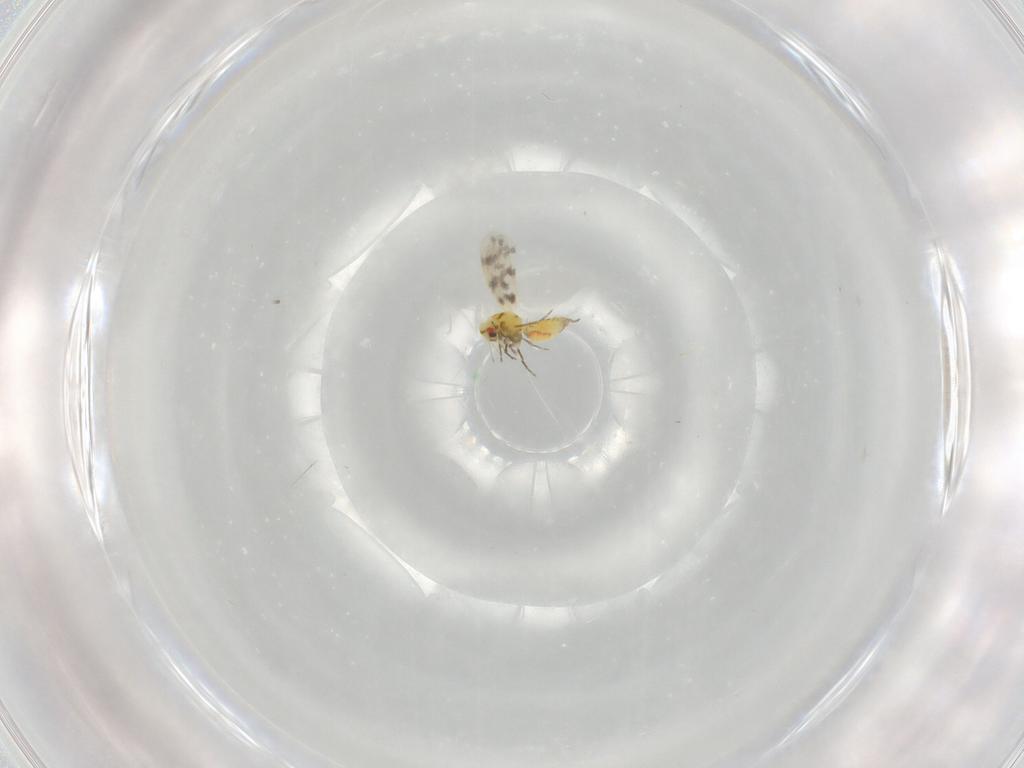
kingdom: Animalia
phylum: Arthropoda
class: Insecta
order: Hemiptera
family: Aleyrodidae
